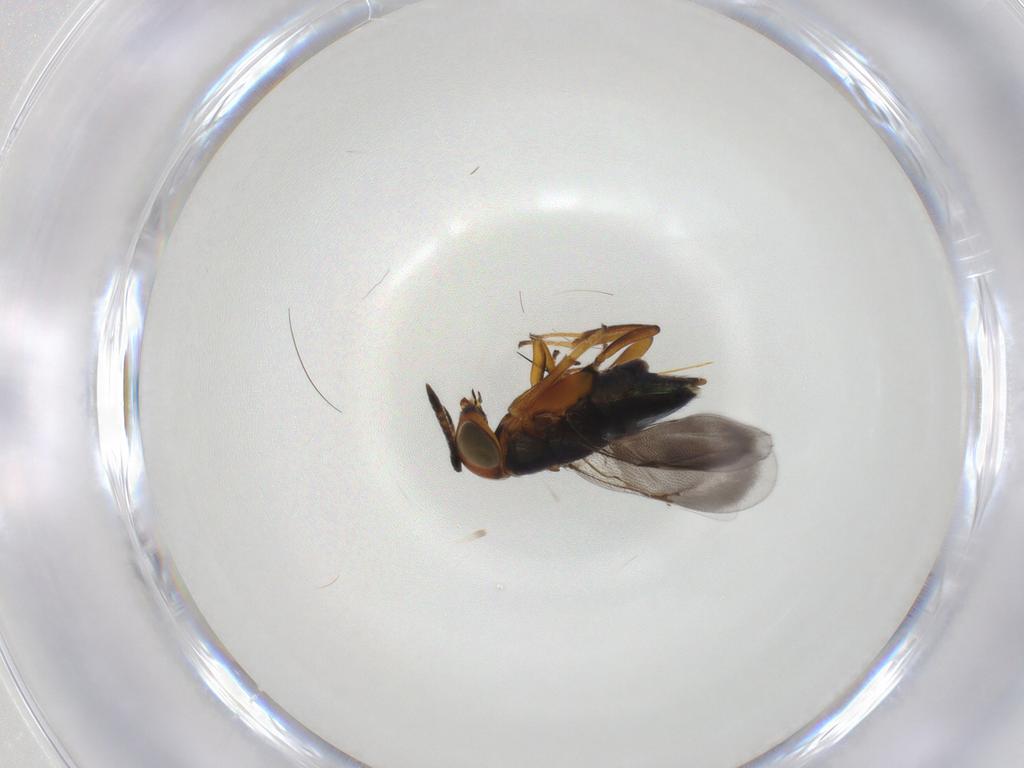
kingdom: Animalia
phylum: Arthropoda
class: Insecta
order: Hymenoptera
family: Encyrtidae
